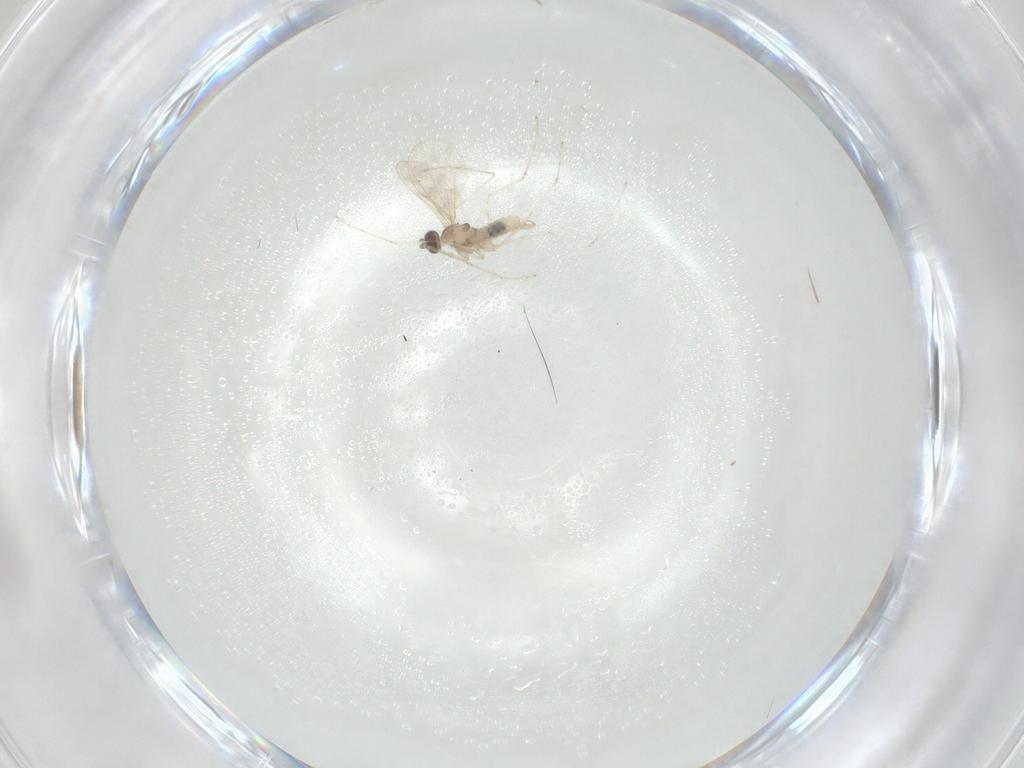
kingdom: Animalia
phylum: Arthropoda
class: Insecta
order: Diptera
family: Cecidomyiidae
